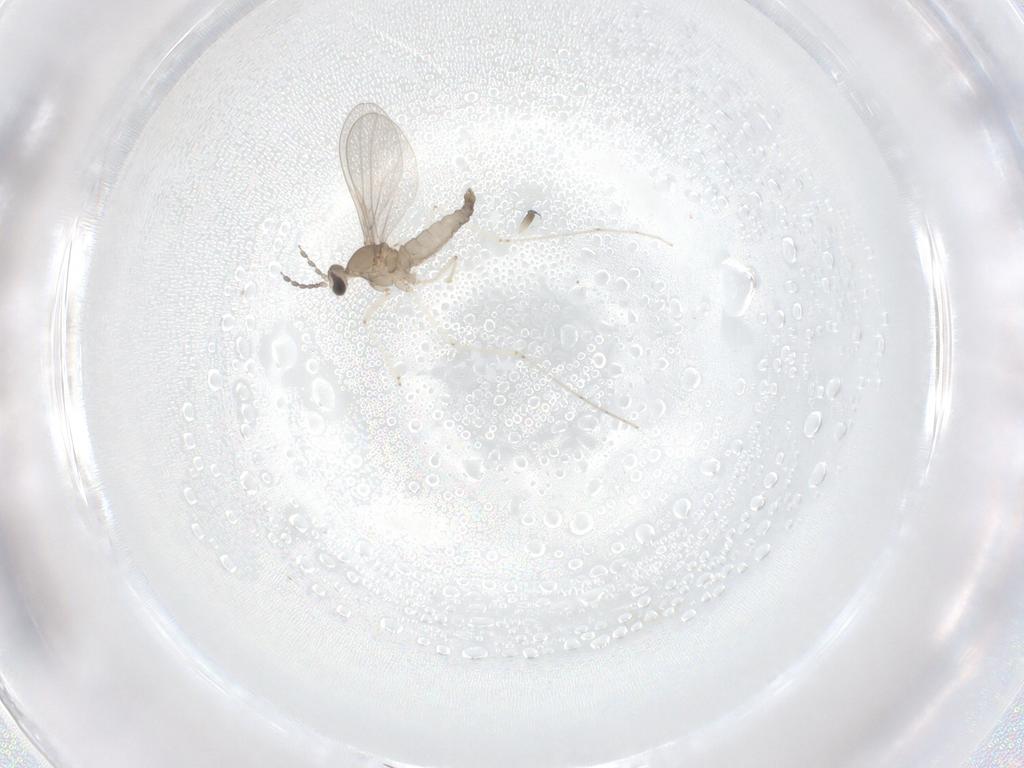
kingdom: Animalia
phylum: Arthropoda
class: Insecta
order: Diptera
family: Cecidomyiidae
